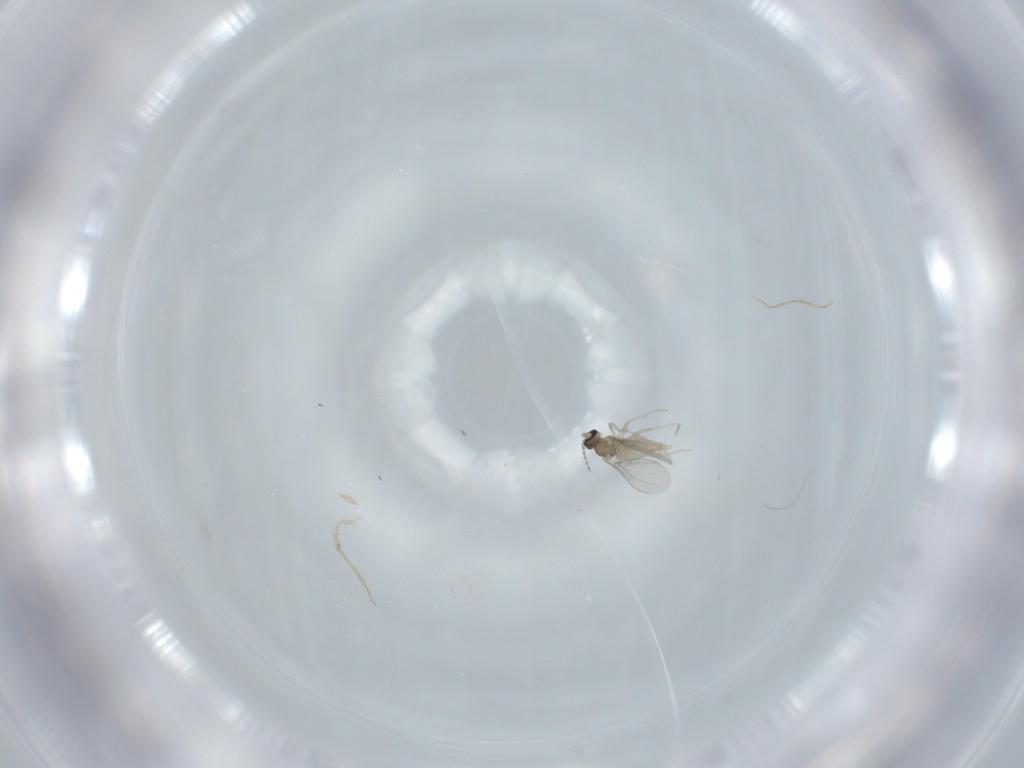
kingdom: Animalia
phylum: Arthropoda
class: Insecta
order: Diptera
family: Cecidomyiidae
